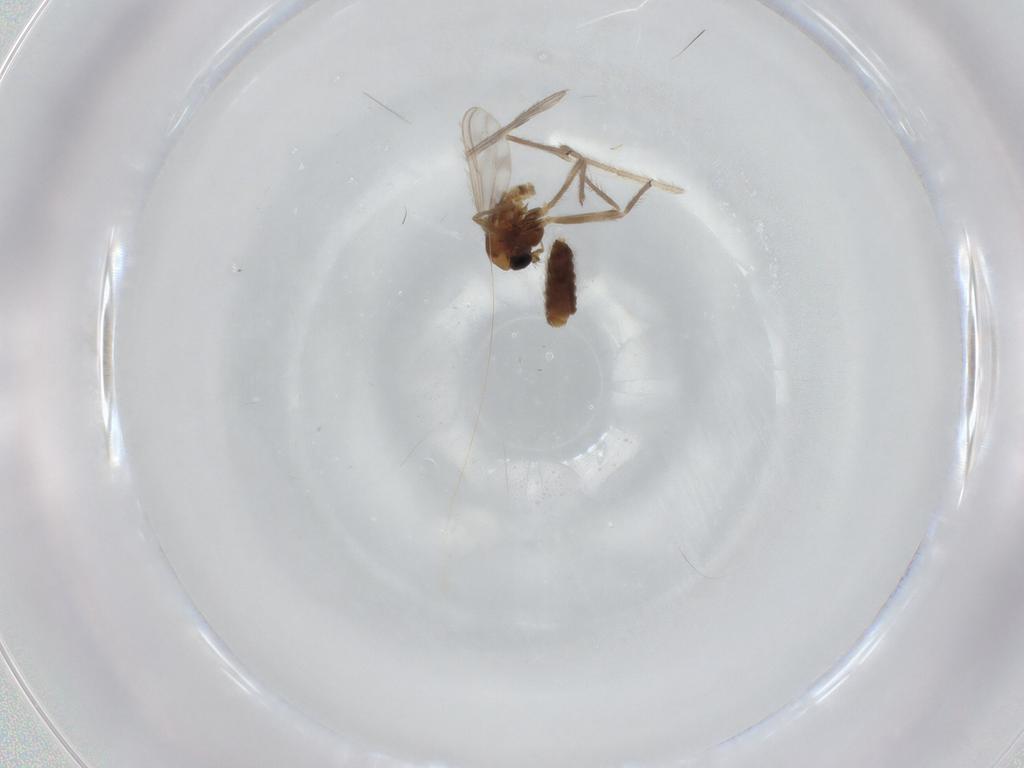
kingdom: Animalia
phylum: Arthropoda
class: Insecta
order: Diptera
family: Chironomidae
